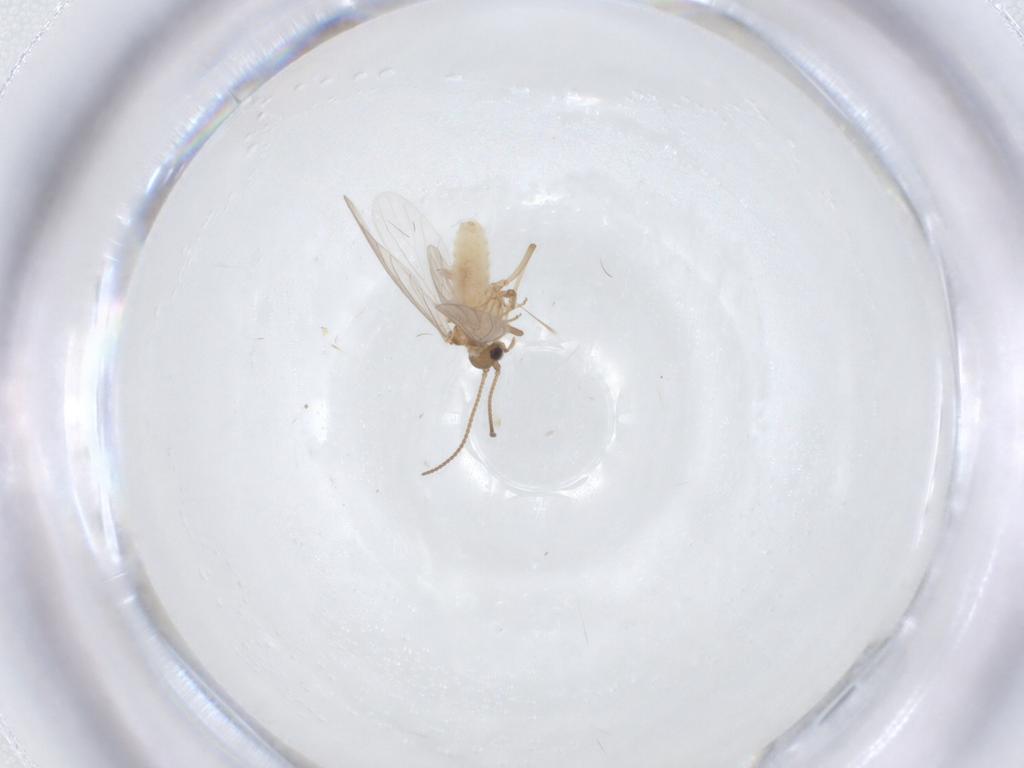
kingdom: Animalia
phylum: Arthropoda
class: Insecta
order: Neuroptera
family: Coniopterygidae
